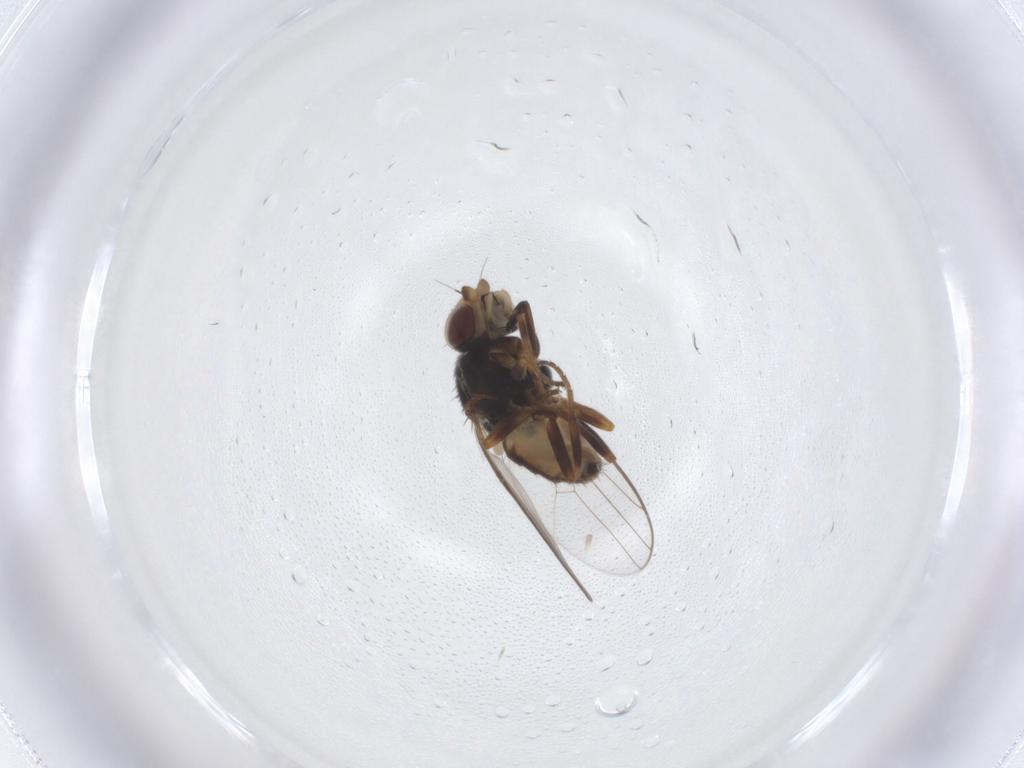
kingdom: Animalia
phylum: Arthropoda
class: Insecta
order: Diptera
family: Chloropidae
